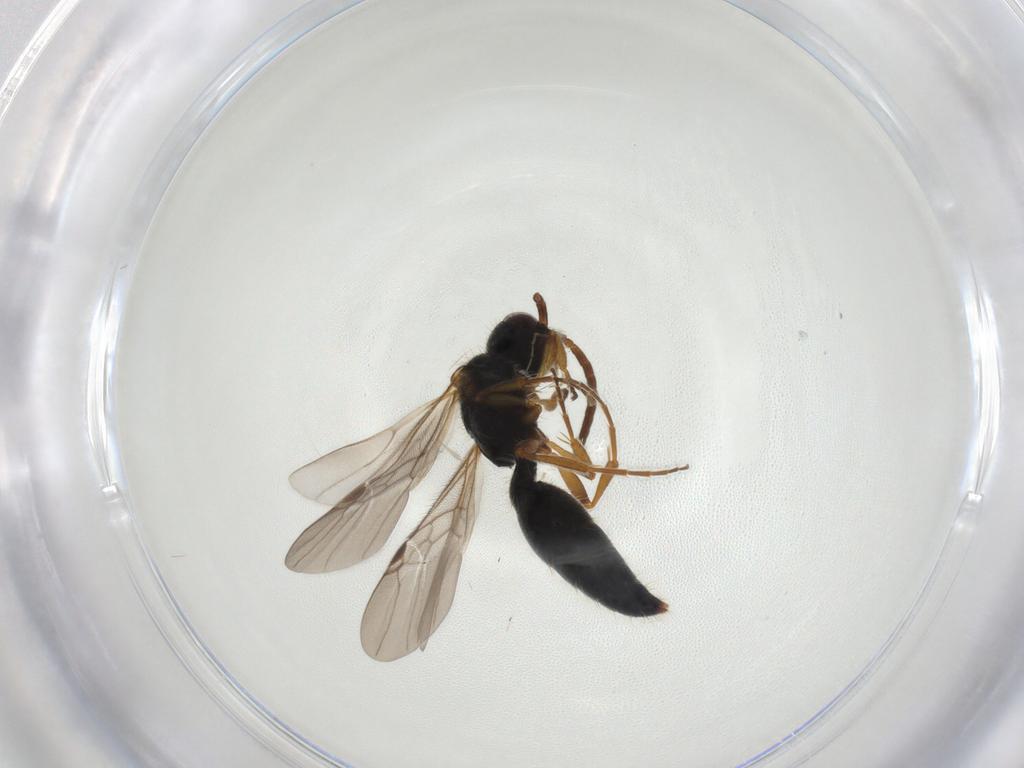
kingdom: Animalia
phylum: Arthropoda
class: Insecta
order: Hymenoptera
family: Mutillidae
